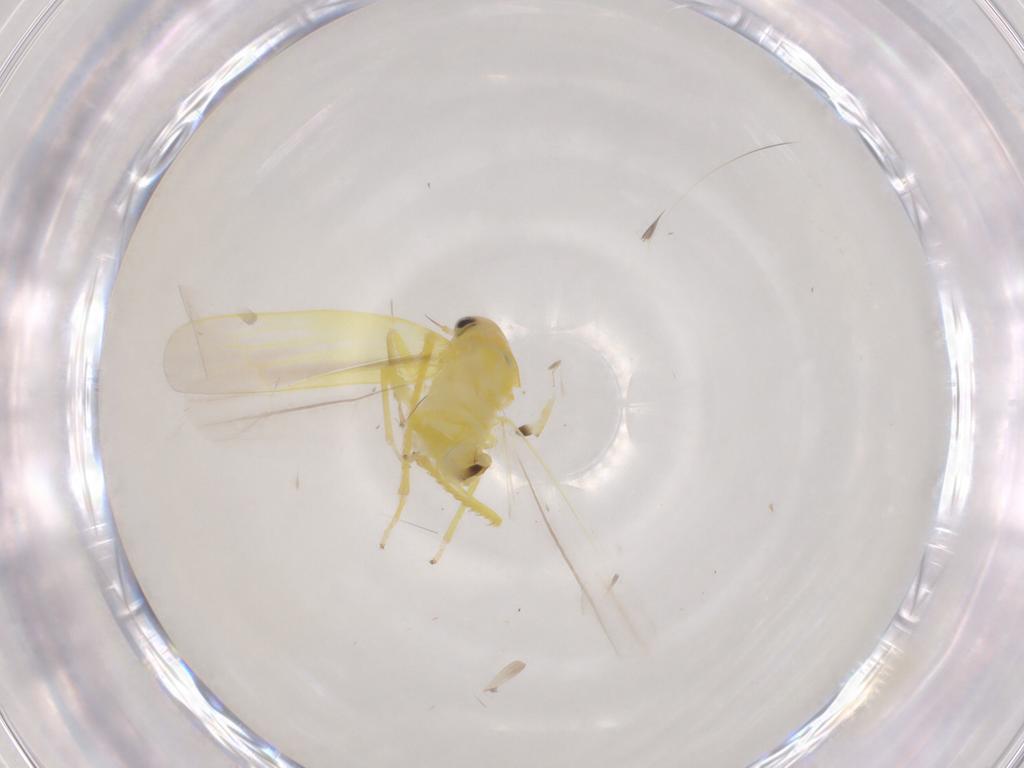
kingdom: Animalia
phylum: Arthropoda
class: Insecta
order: Hemiptera
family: Cicadellidae
